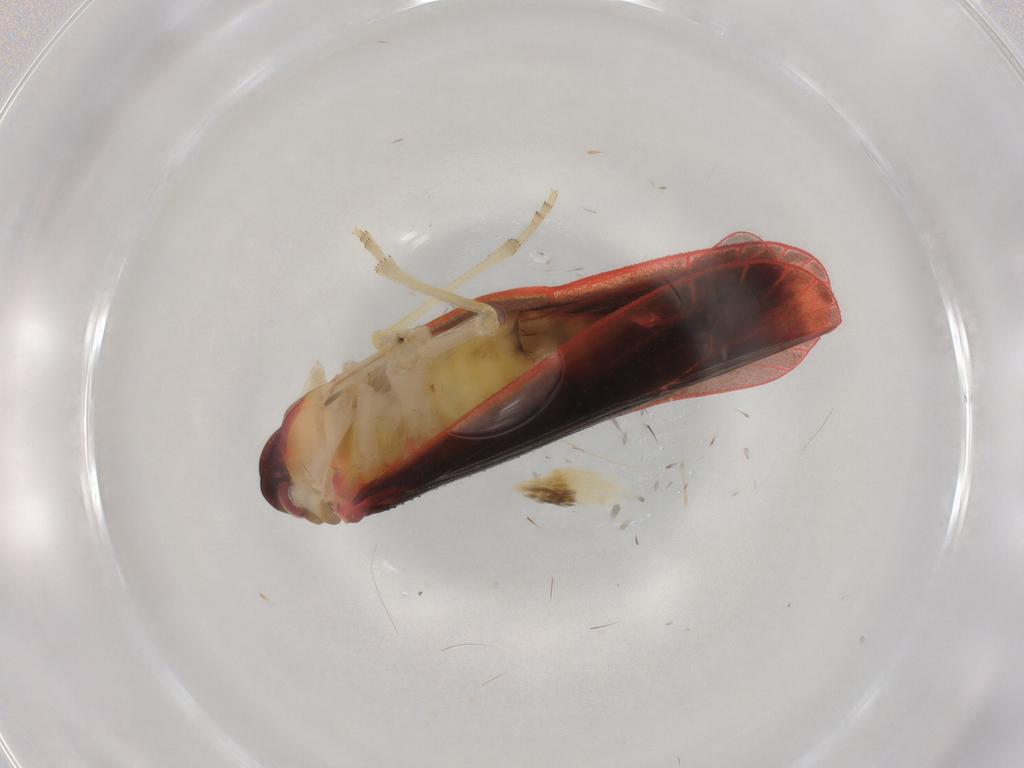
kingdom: Animalia
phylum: Arthropoda
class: Insecta
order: Hemiptera
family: Derbidae
